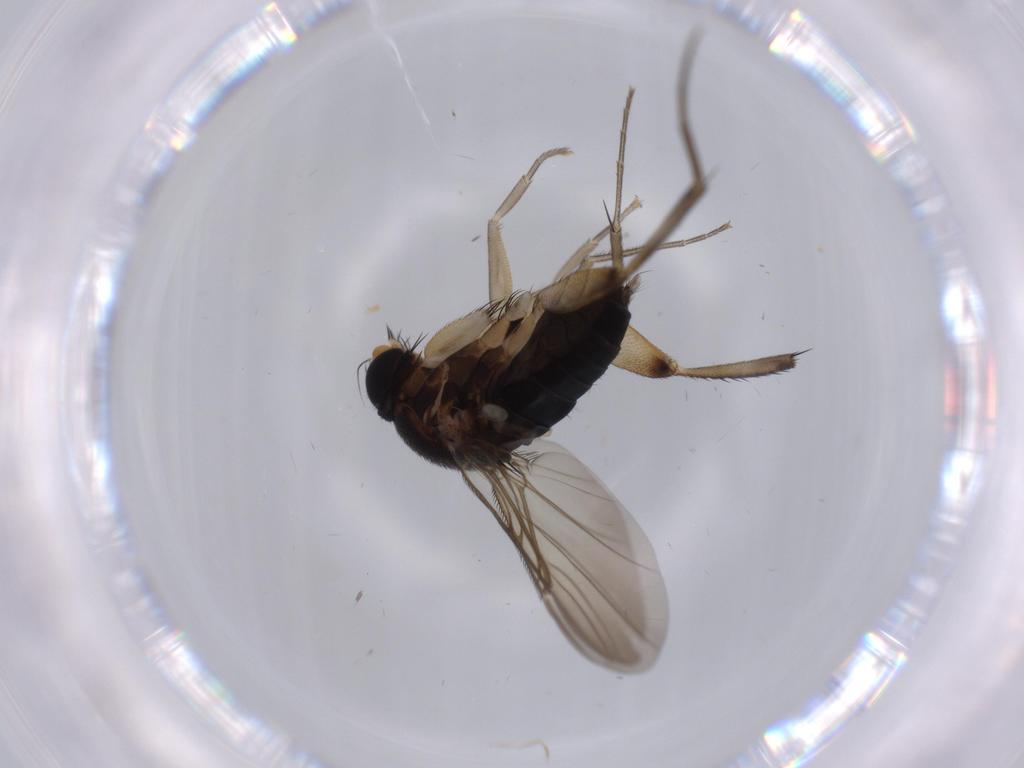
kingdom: Animalia
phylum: Arthropoda
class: Insecta
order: Diptera
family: Phoridae
